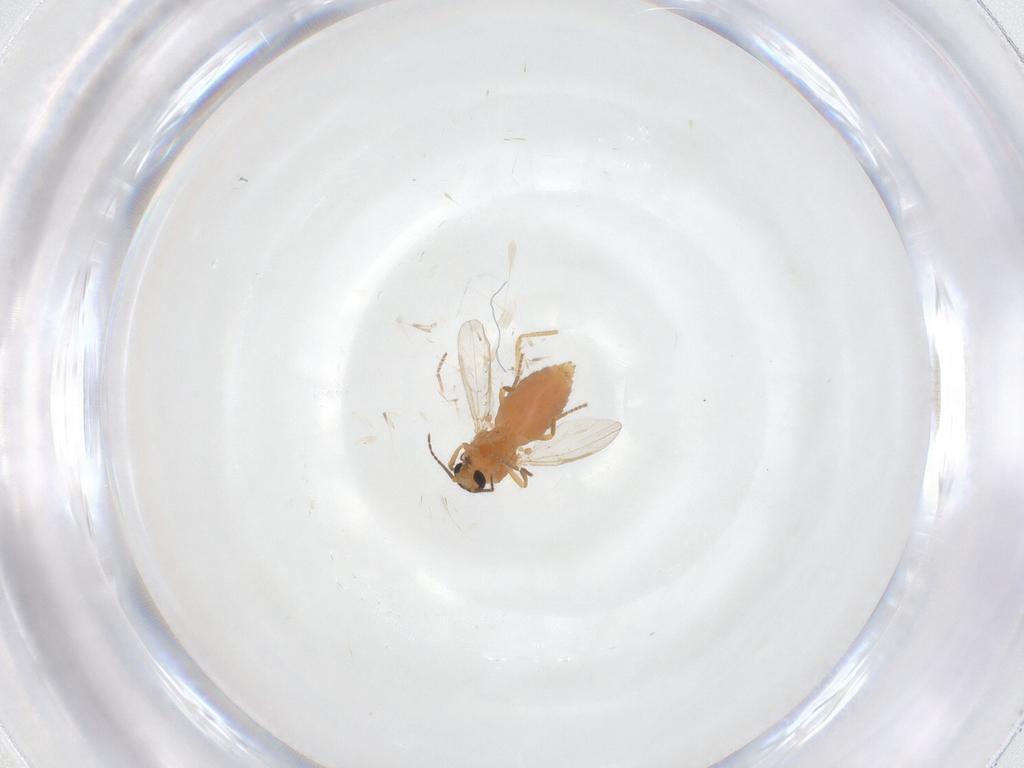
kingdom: Animalia
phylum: Arthropoda
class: Insecta
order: Diptera
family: Ceratopogonidae
